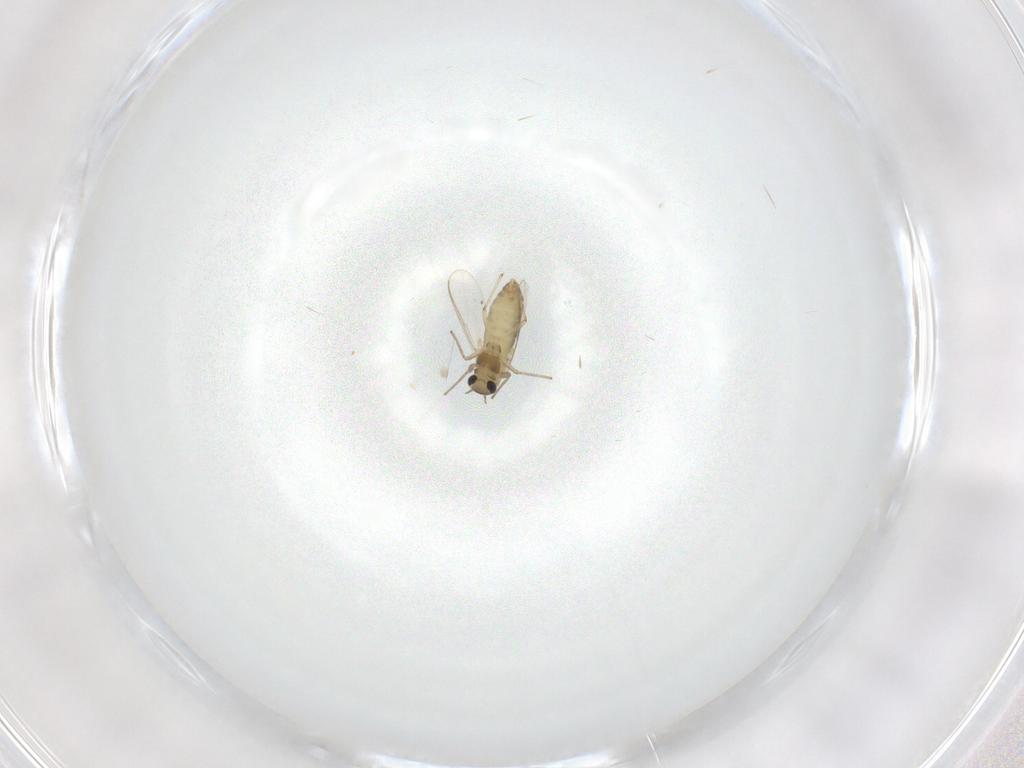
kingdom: Animalia
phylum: Arthropoda
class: Insecta
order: Diptera
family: Chironomidae
